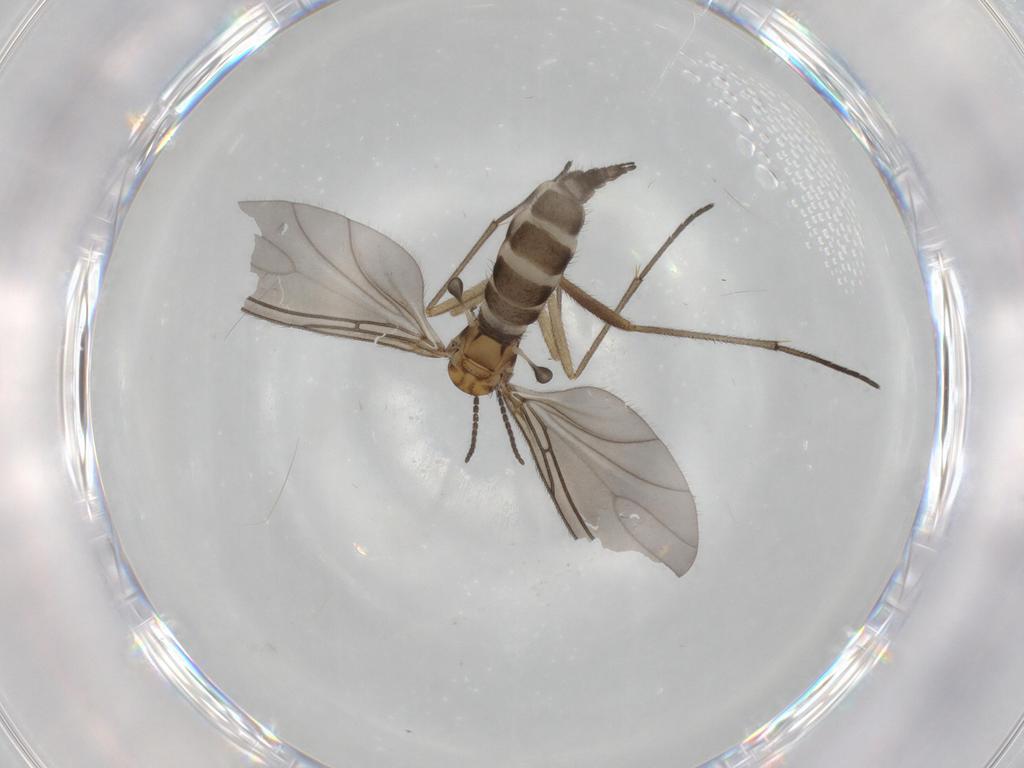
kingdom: Animalia
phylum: Arthropoda
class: Insecta
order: Diptera
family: Sciaridae
